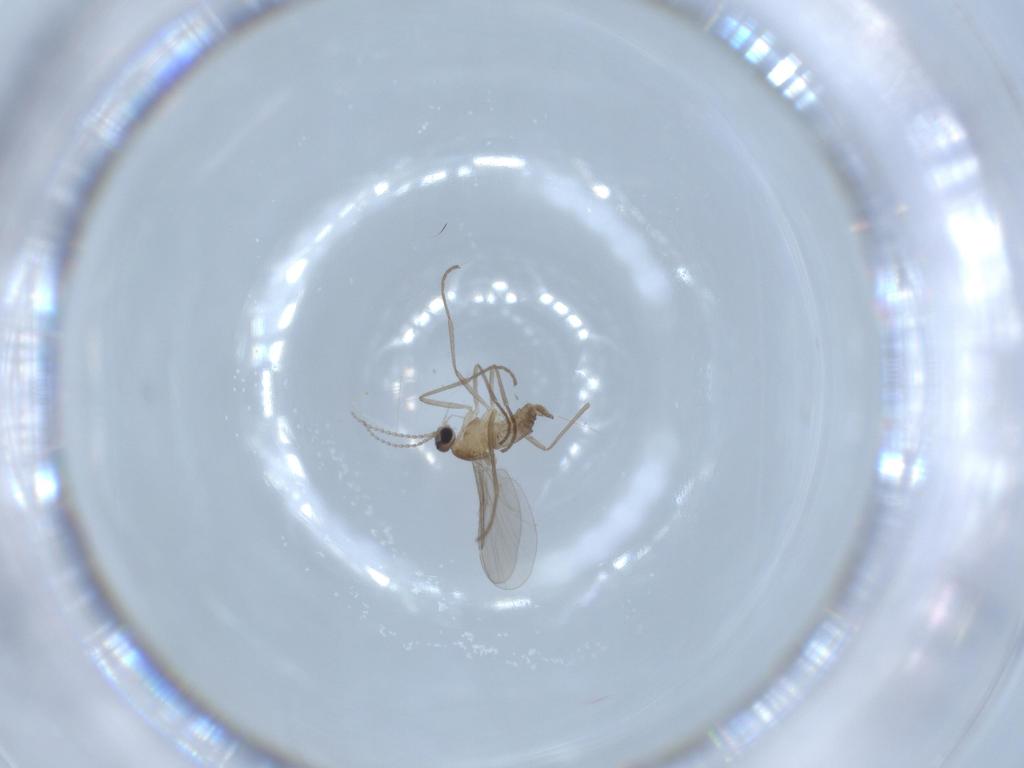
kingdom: Animalia
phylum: Arthropoda
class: Insecta
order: Diptera
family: Cecidomyiidae
